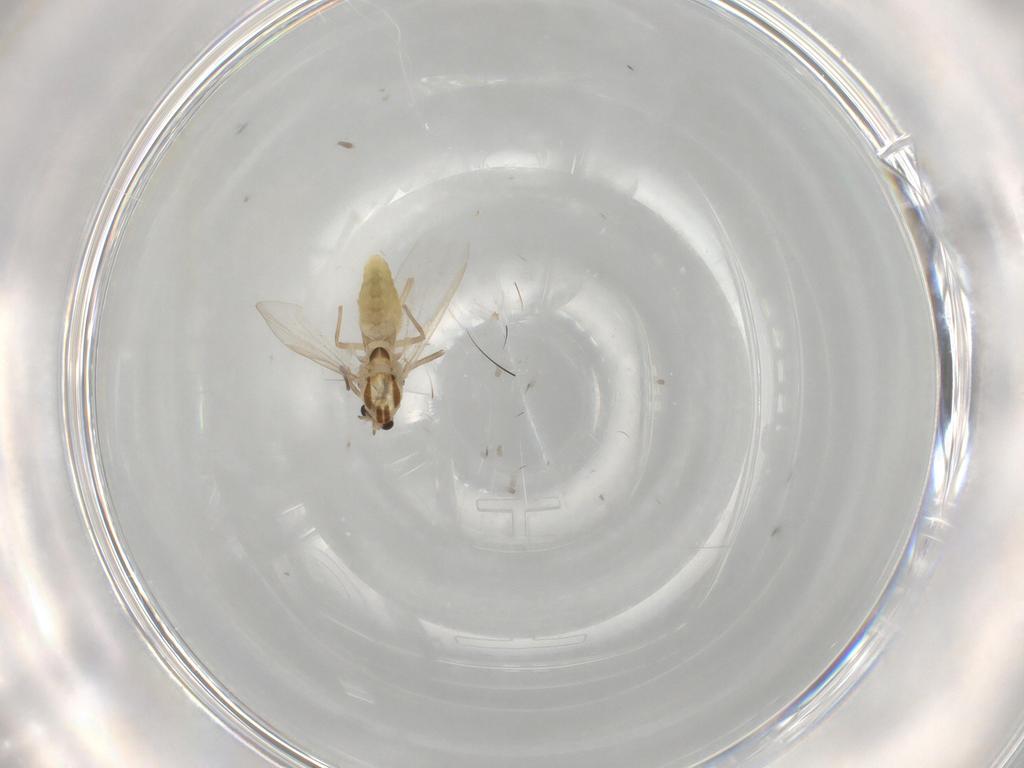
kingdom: Animalia
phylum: Arthropoda
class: Insecta
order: Diptera
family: Chironomidae
